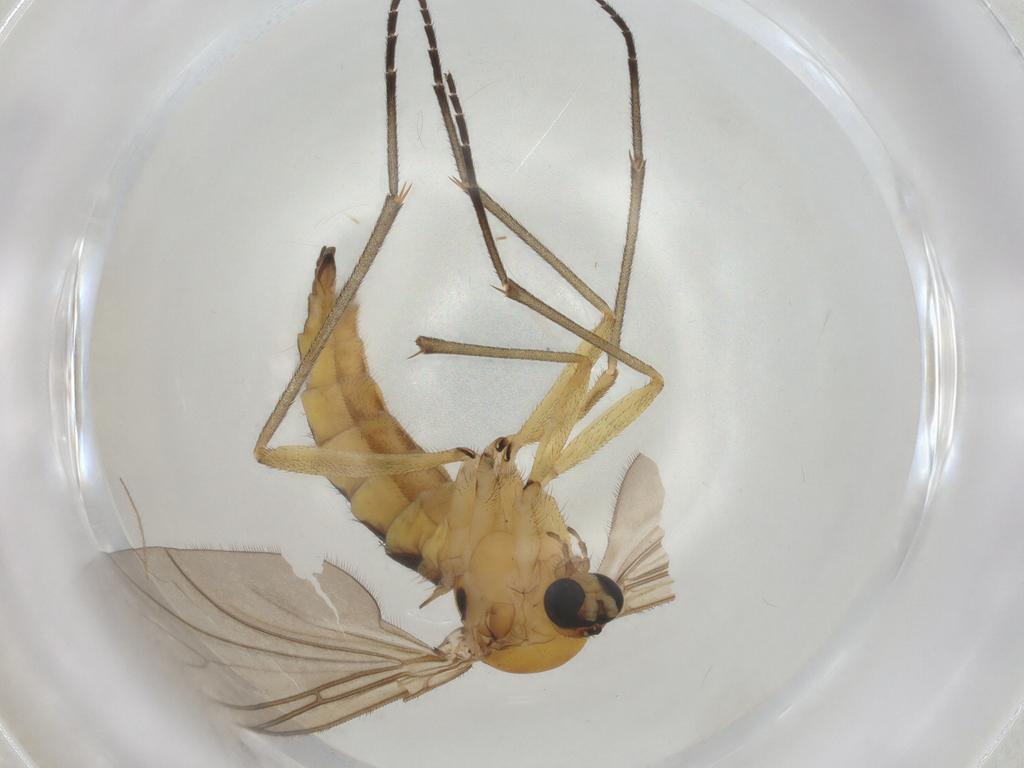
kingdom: Animalia
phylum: Arthropoda
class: Insecta
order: Diptera
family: Sciaridae
